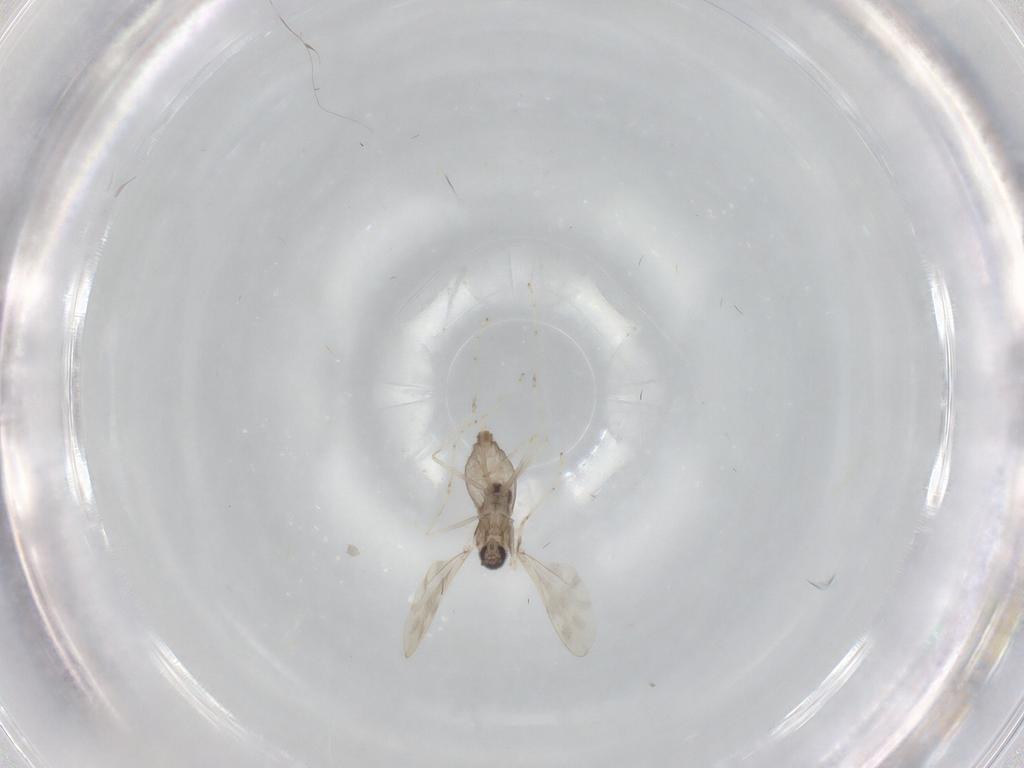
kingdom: Animalia
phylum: Arthropoda
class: Insecta
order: Diptera
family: Cecidomyiidae
